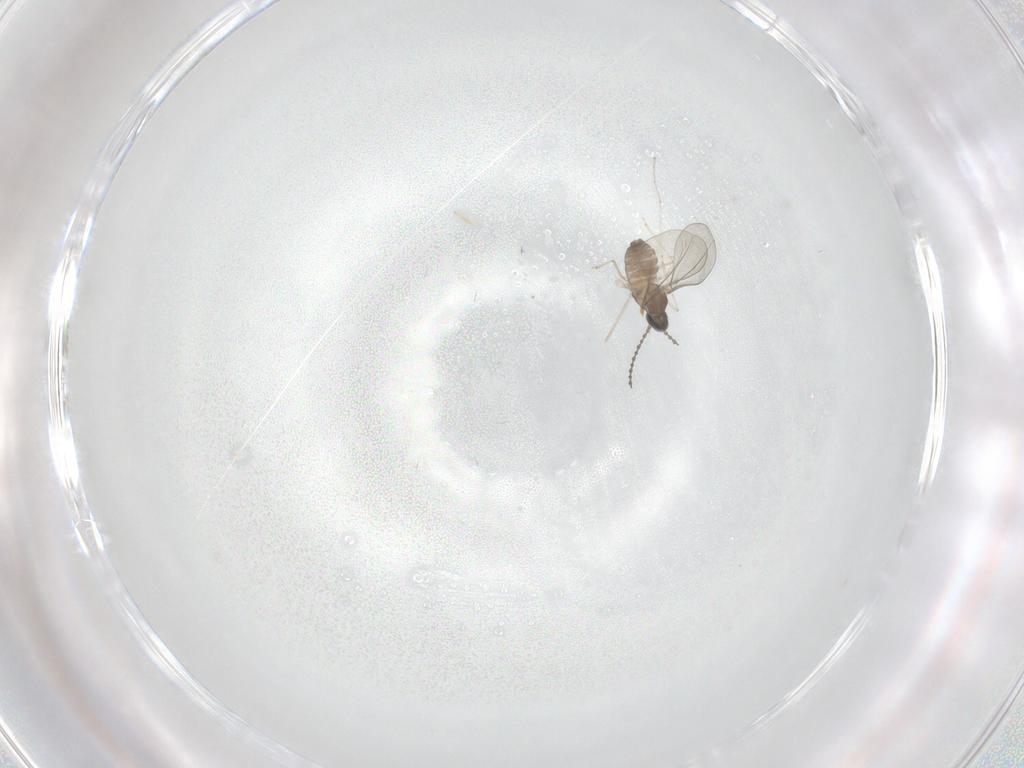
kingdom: Animalia
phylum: Arthropoda
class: Insecta
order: Diptera
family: Cecidomyiidae
